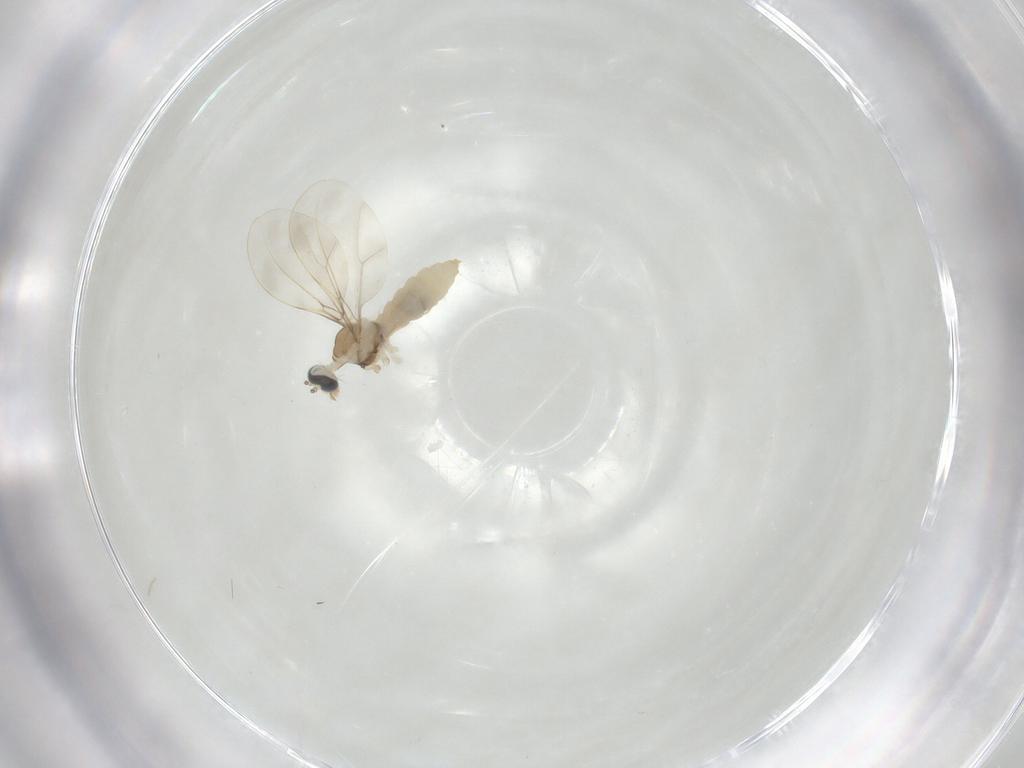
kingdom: Animalia
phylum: Arthropoda
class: Insecta
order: Diptera
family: Cecidomyiidae
